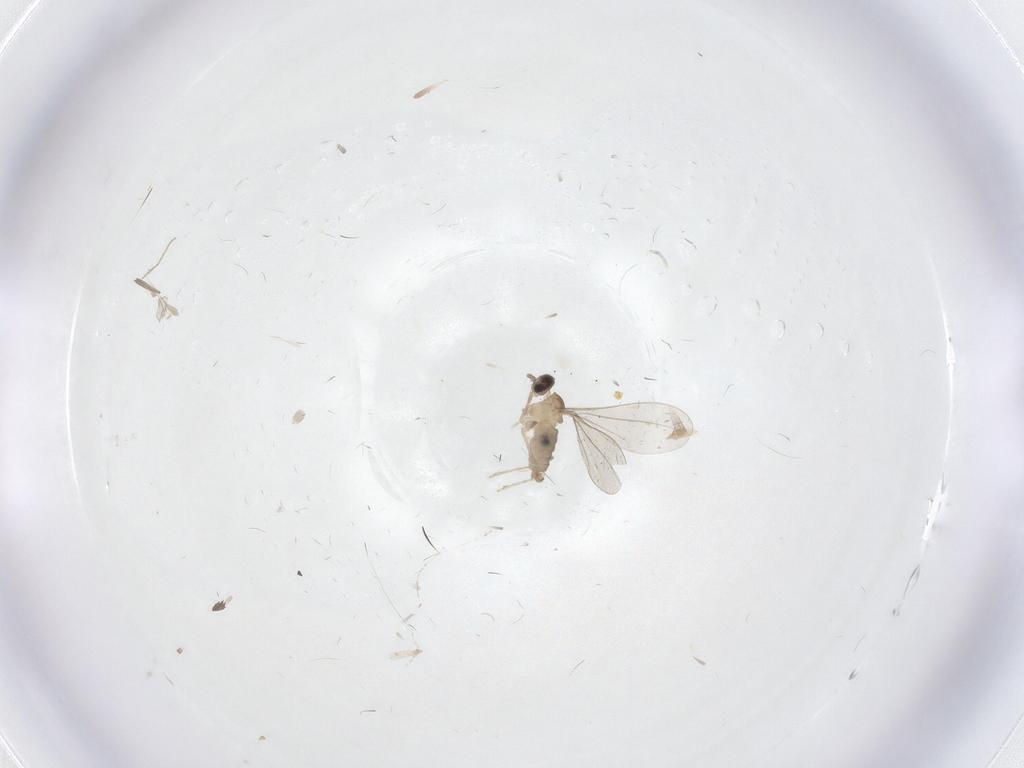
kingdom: Animalia
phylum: Arthropoda
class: Insecta
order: Diptera
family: Cecidomyiidae
